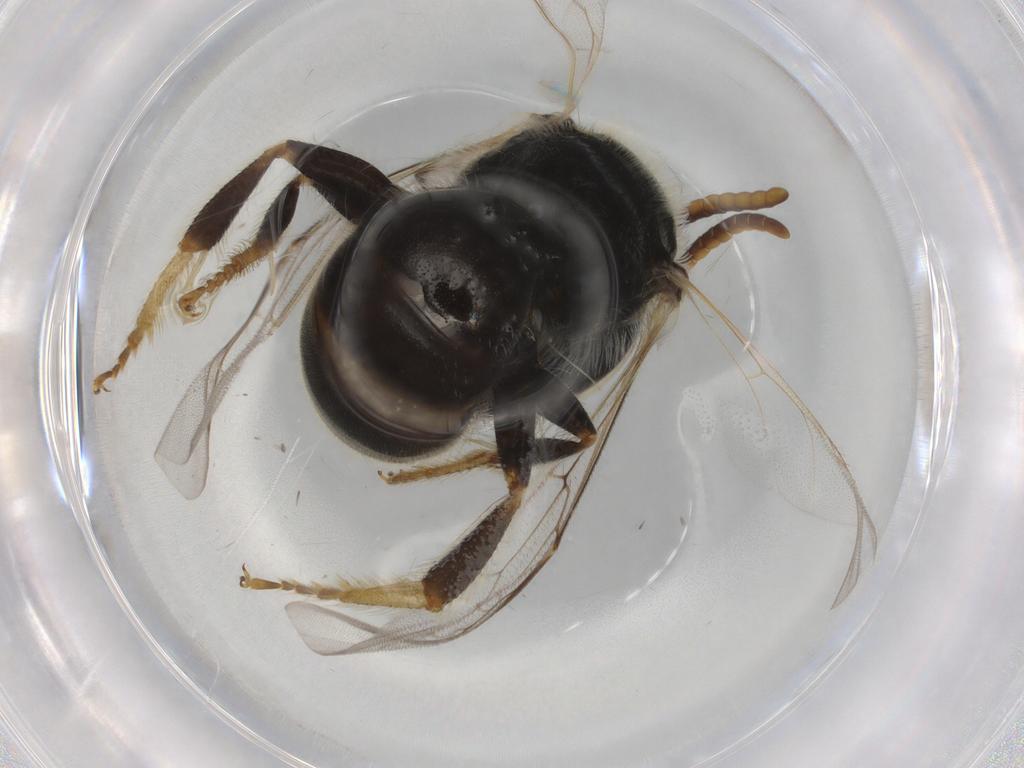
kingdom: Animalia
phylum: Arthropoda
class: Insecta
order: Hymenoptera
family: Halictidae
